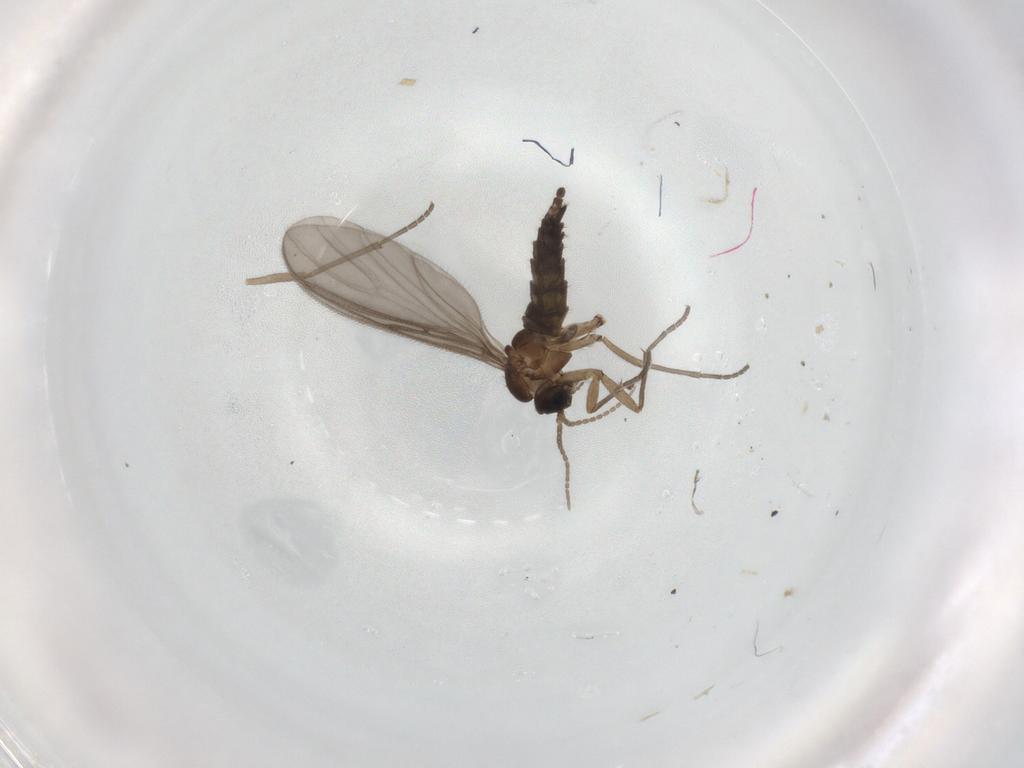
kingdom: Animalia
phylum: Arthropoda
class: Insecta
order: Diptera
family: Sciaridae
